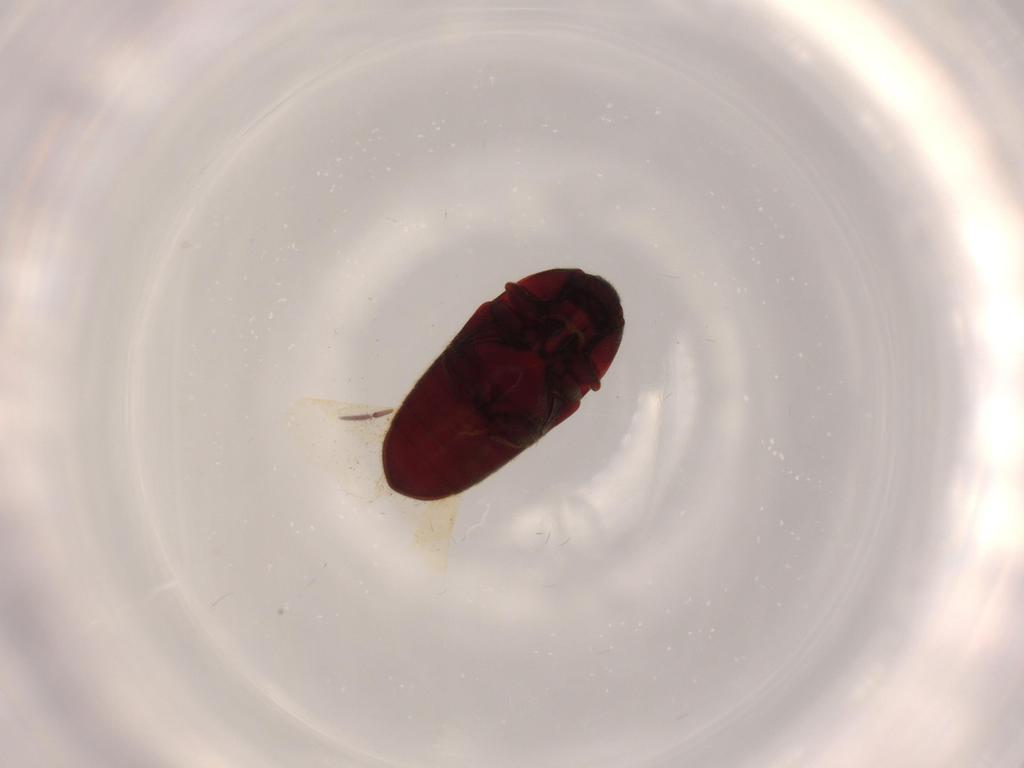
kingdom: Animalia
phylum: Arthropoda
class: Insecta
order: Coleoptera
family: Throscidae
